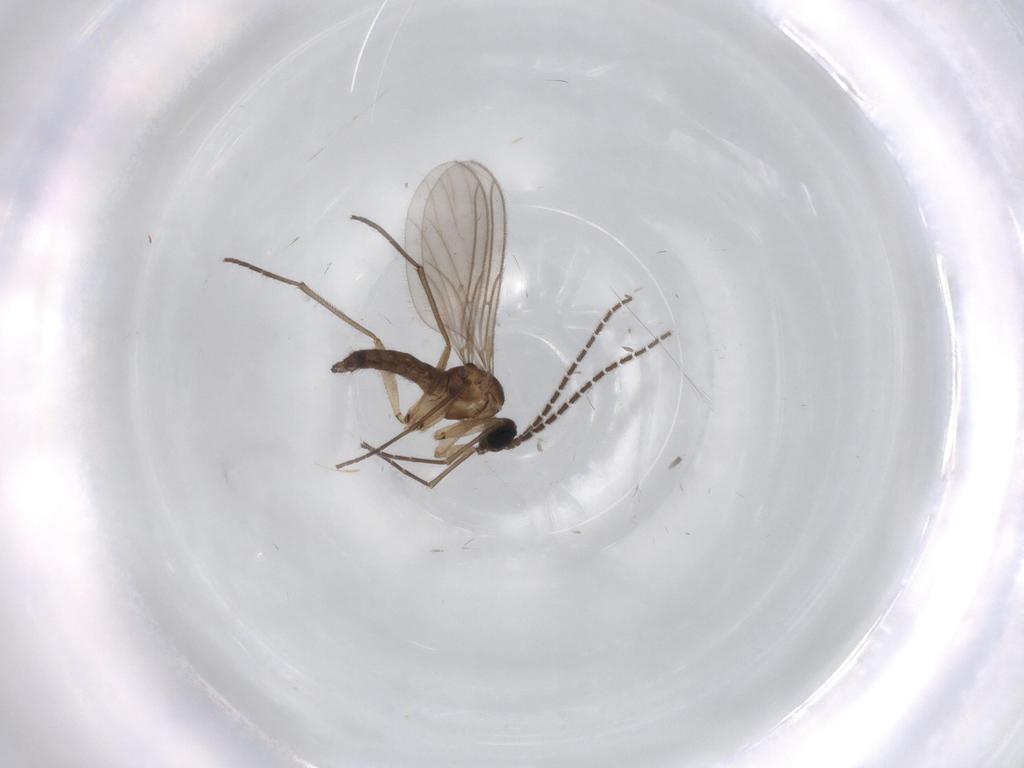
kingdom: Animalia
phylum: Arthropoda
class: Insecta
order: Diptera
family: Sciaridae
